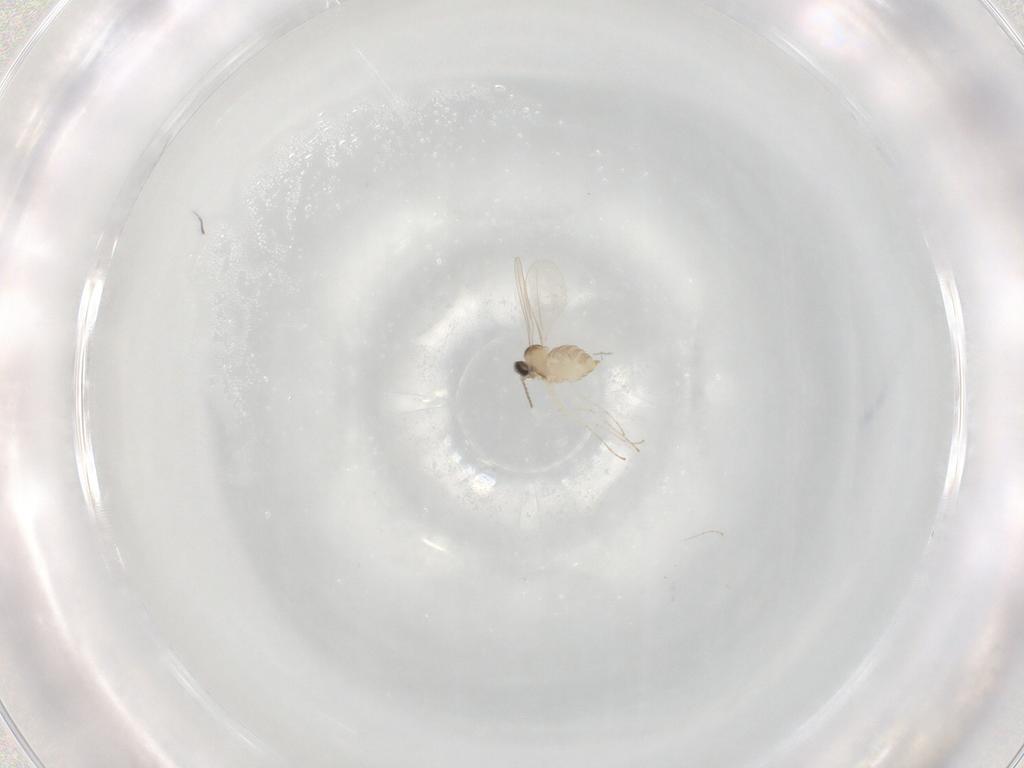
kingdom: Animalia
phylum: Arthropoda
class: Insecta
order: Diptera
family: Cecidomyiidae
